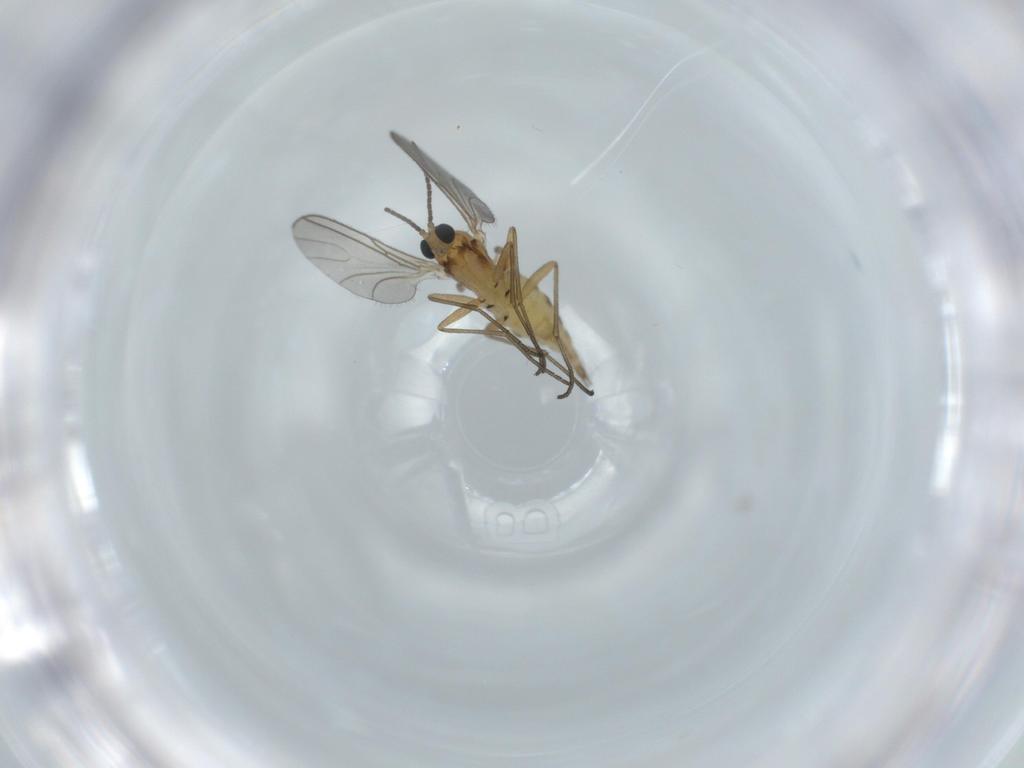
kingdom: Animalia
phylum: Arthropoda
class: Insecta
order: Diptera
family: Sciaridae
